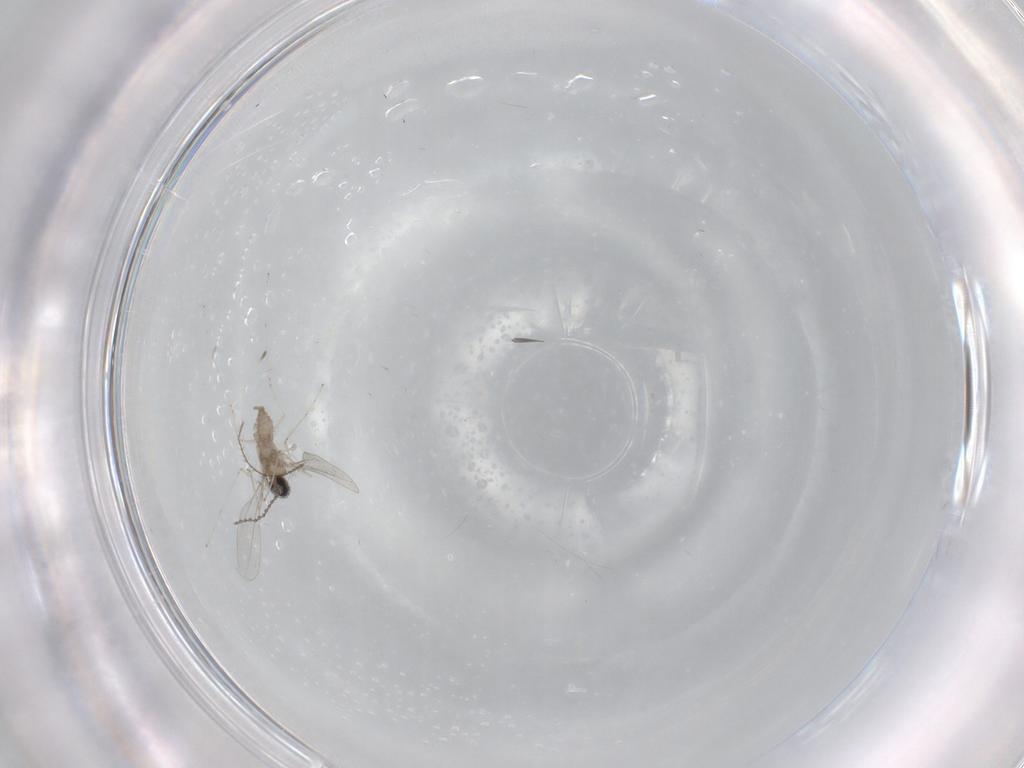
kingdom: Animalia
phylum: Arthropoda
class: Insecta
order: Diptera
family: Cecidomyiidae
